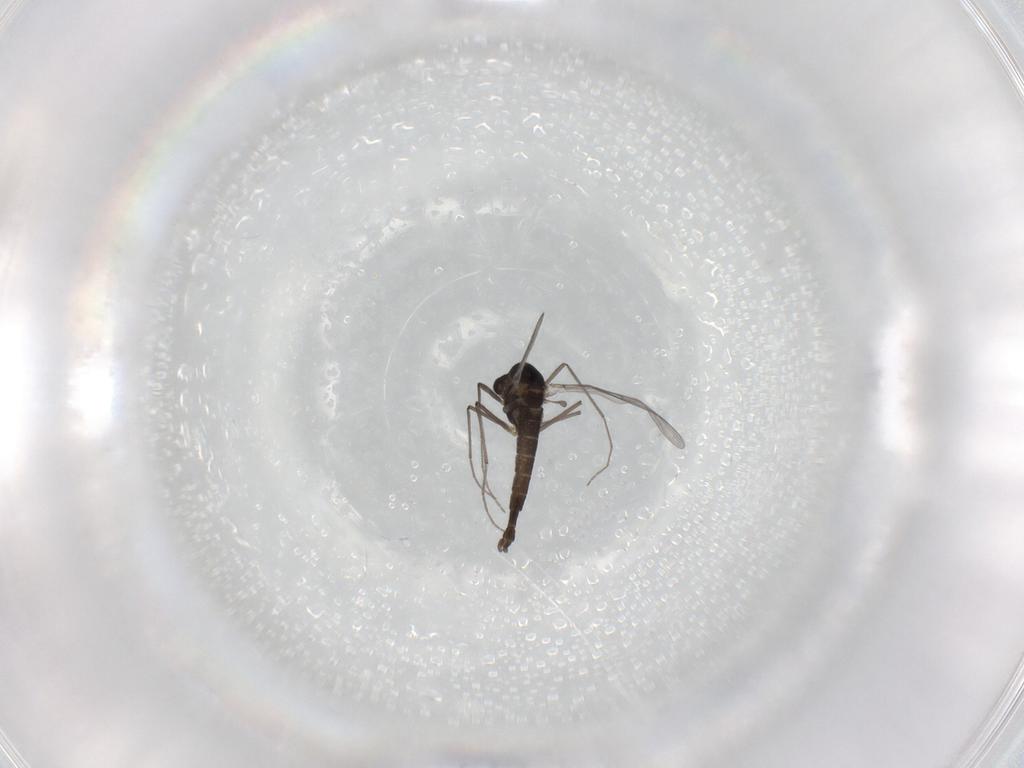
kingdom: Animalia
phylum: Arthropoda
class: Insecta
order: Diptera
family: Chironomidae
